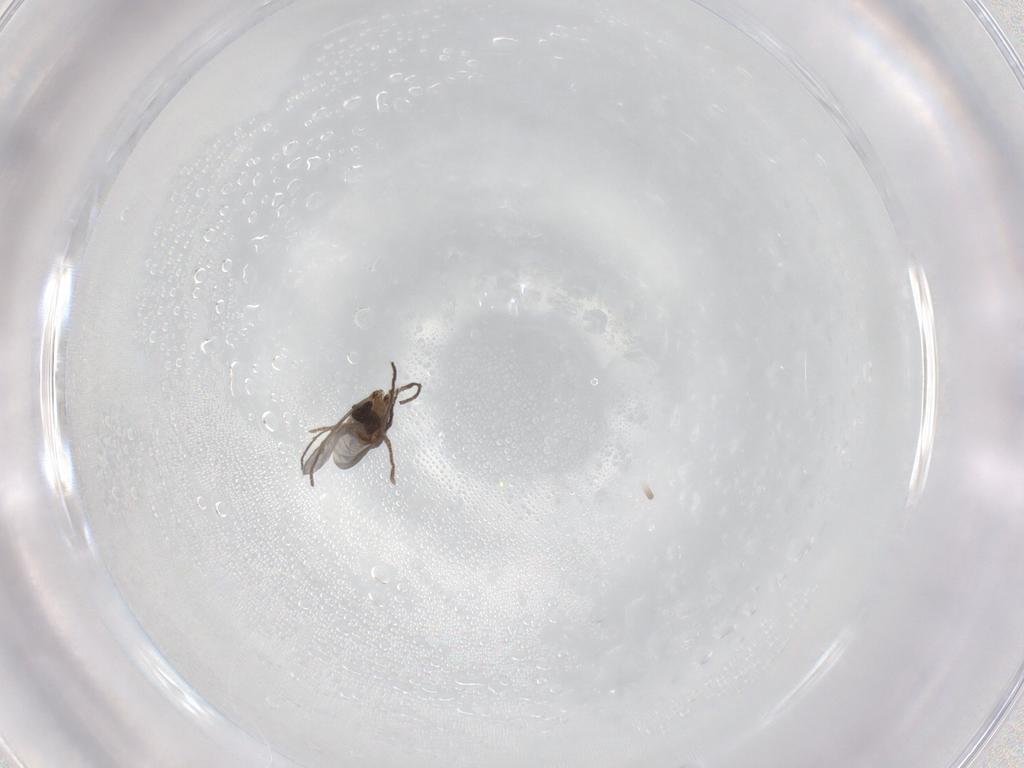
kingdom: Animalia
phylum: Arthropoda
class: Insecta
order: Diptera
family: Sciaridae
